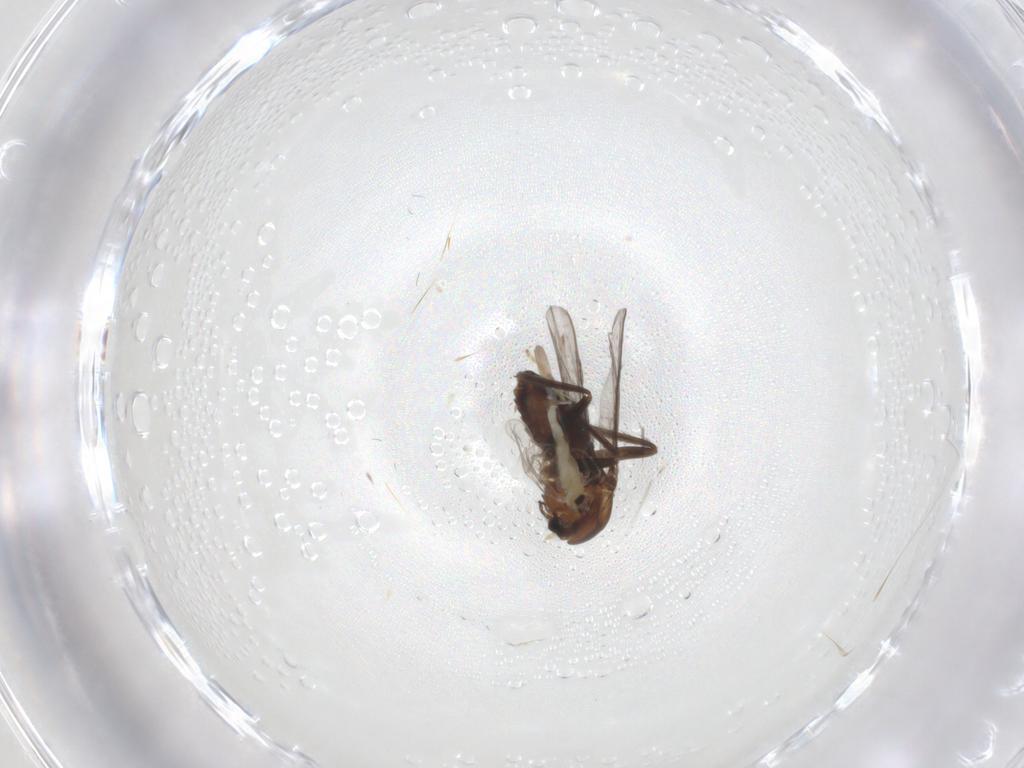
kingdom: Animalia
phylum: Arthropoda
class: Insecta
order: Diptera
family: Chironomidae
